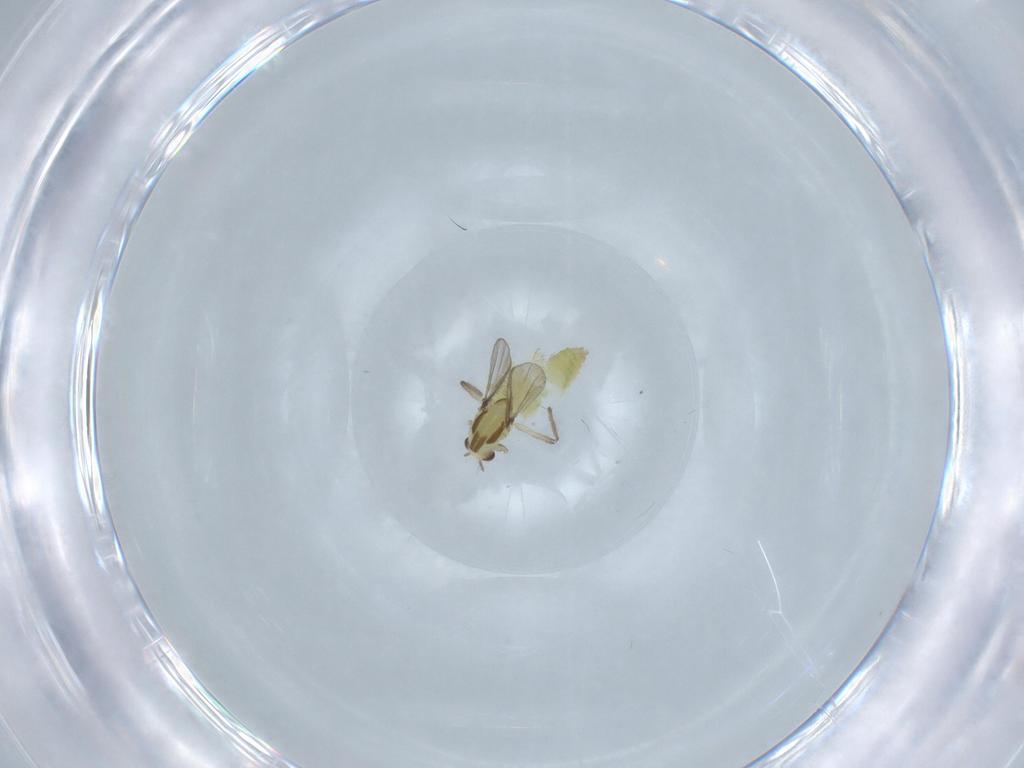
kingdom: Animalia
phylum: Arthropoda
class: Insecta
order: Diptera
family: Chironomidae
